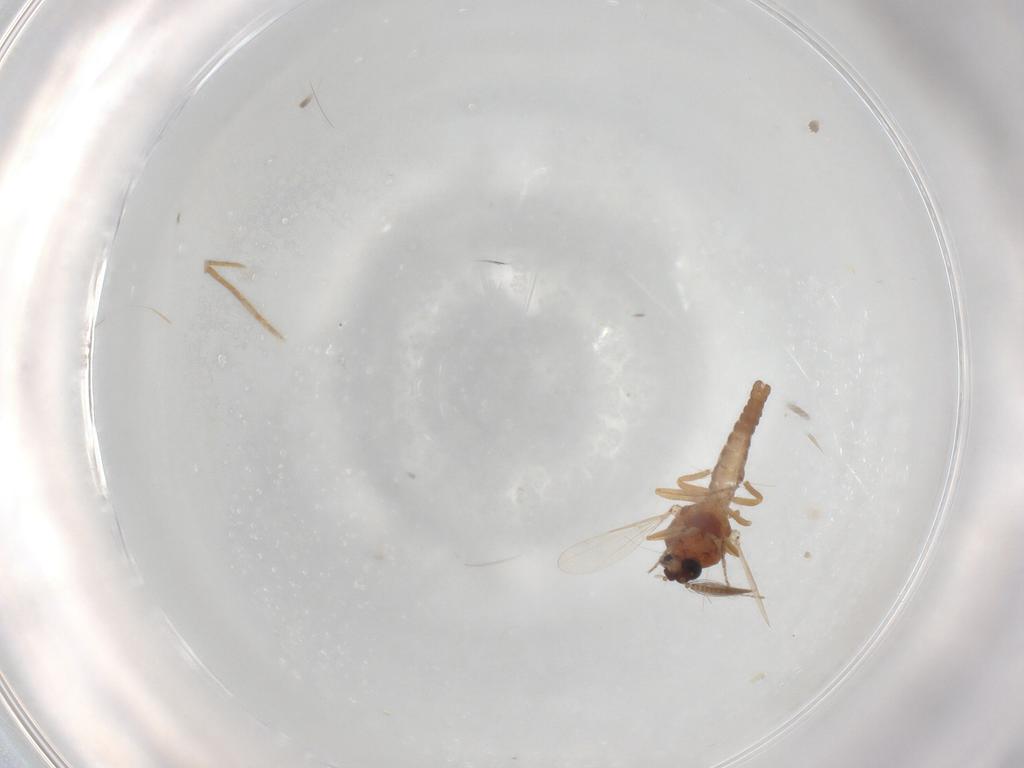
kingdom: Animalia
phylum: Arthropoda
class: Insecta
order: Diptera
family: Ceratopogonidae
